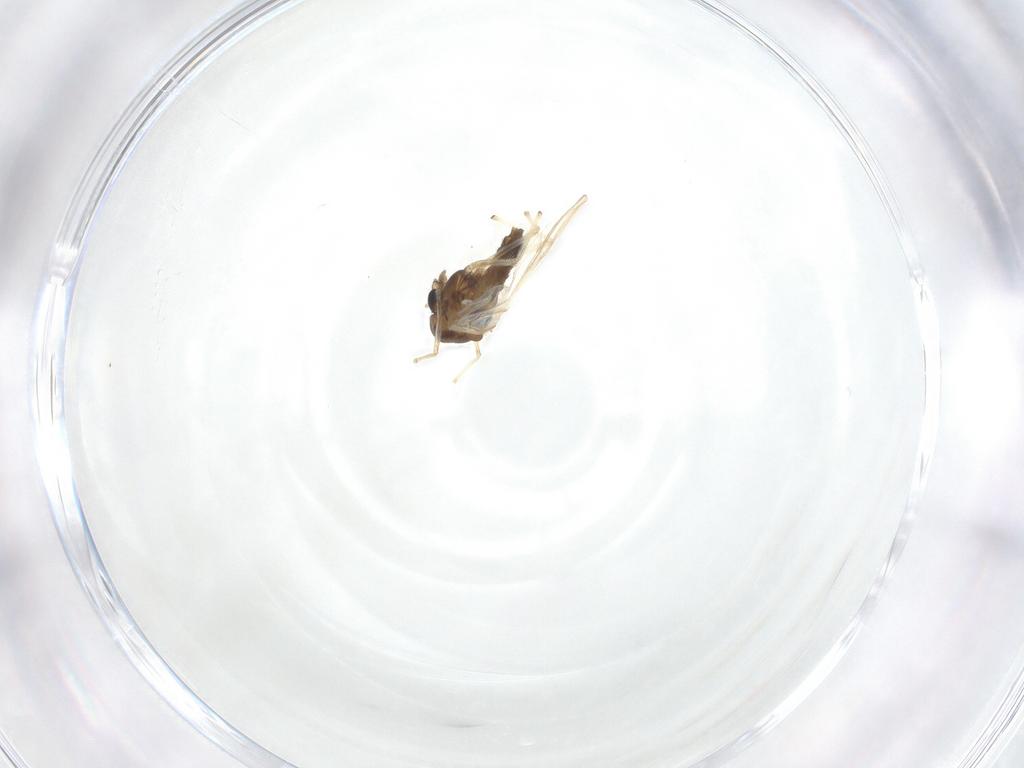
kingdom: Animalia
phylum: Arthropoda
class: Insecta
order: Diptera
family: Chironomidae
